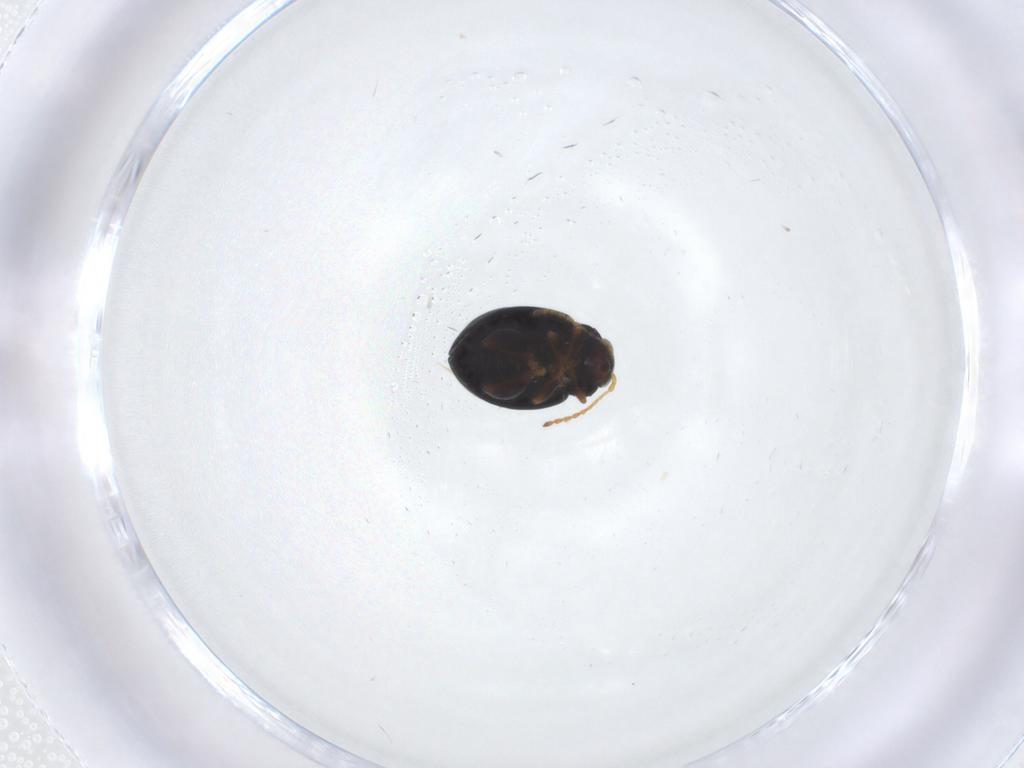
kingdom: Animalia
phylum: Arthropoda
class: Insecta
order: Coleoptera
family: Chrysomelidae
